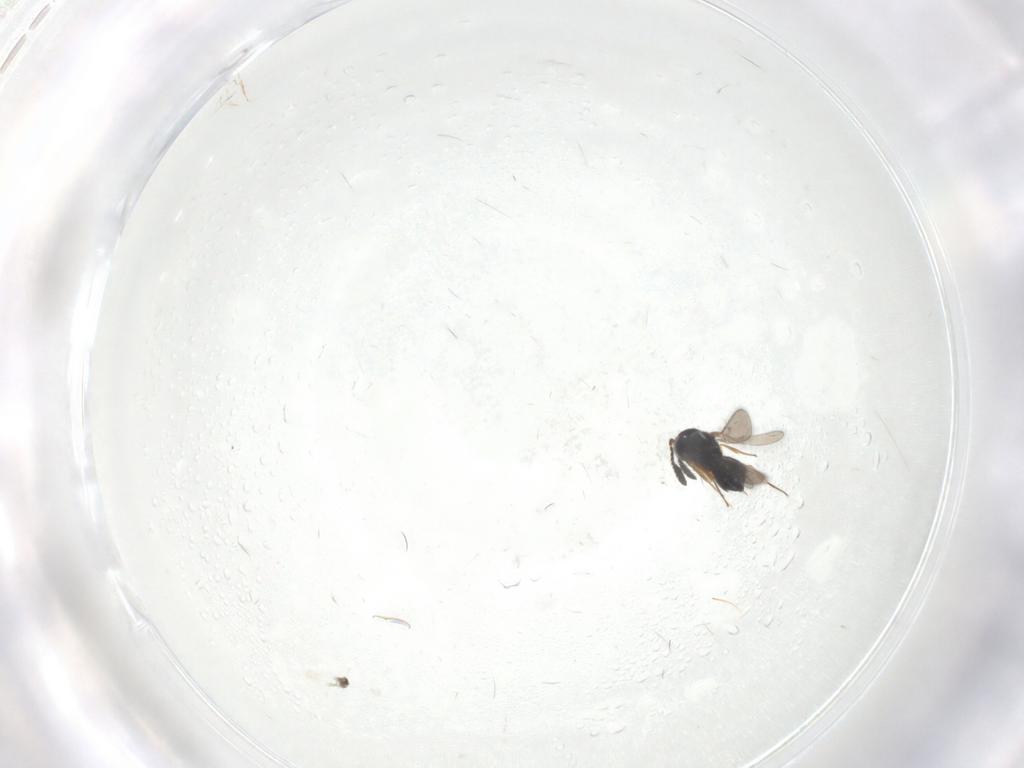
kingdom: Animalia
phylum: Arthropoda
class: Insecta
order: Hymenoptera
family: Scelionidae
